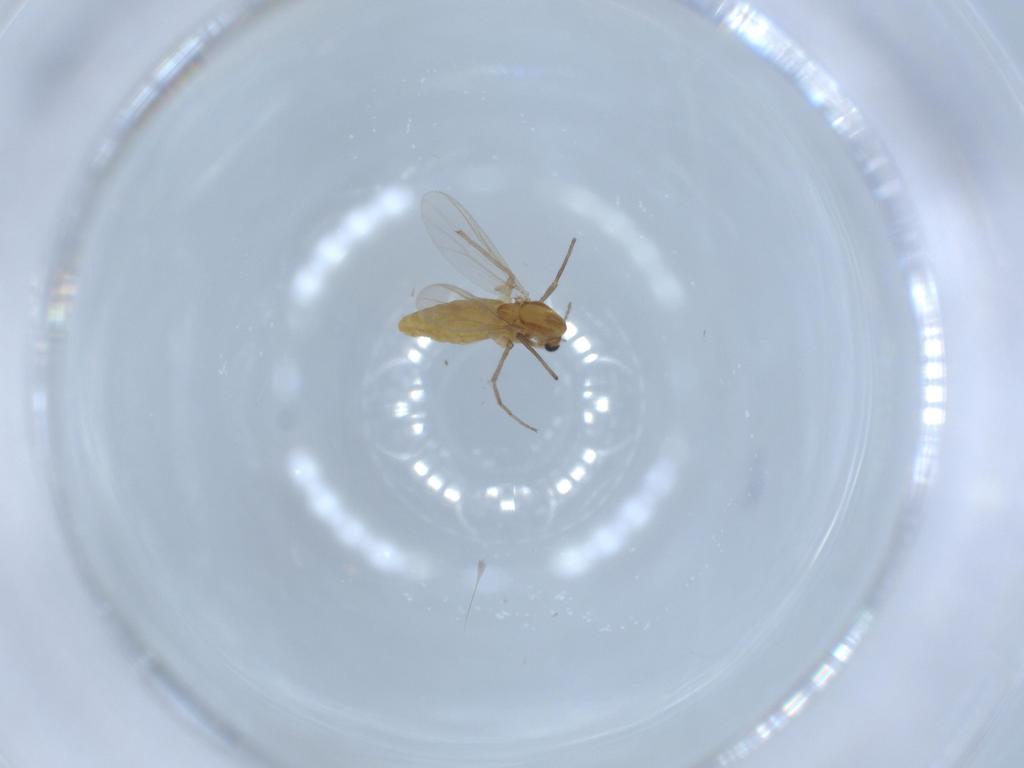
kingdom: Animalia
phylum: Arthropoda
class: Insecta
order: Diptera
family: Chironomidae
